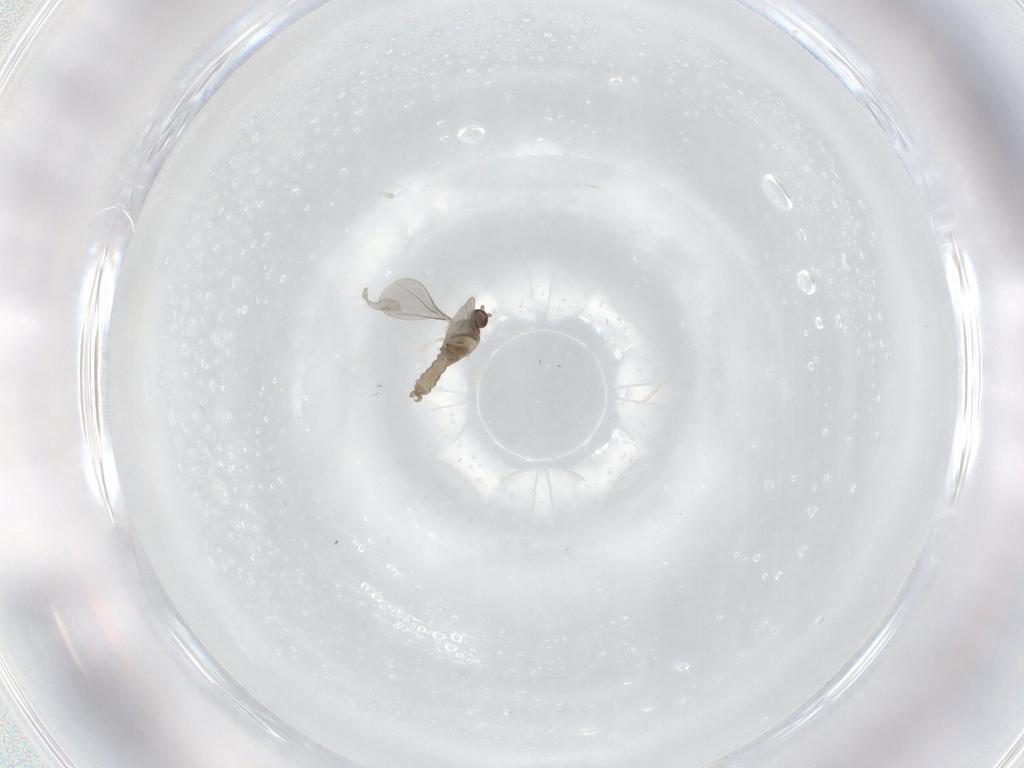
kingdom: Animalia
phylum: Arthropoda
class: Insecta
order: Diptera
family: Cecidomyiidae
